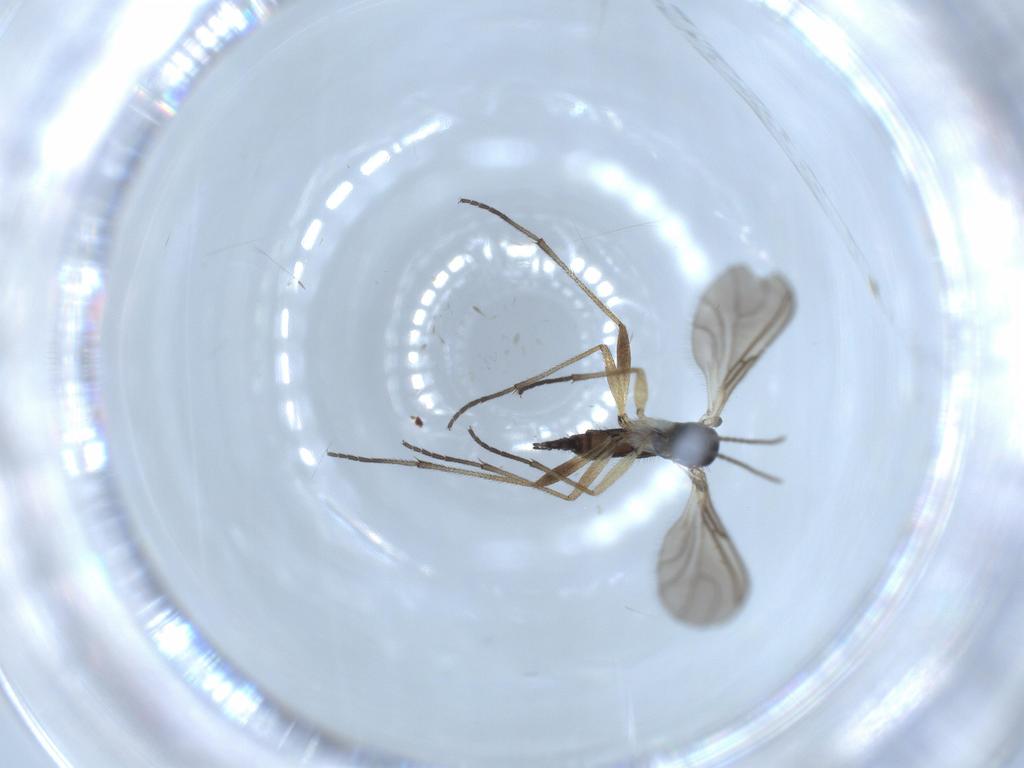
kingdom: Animalia
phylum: Arthropoda
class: Insecta
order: Diptera
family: Sciaridae
